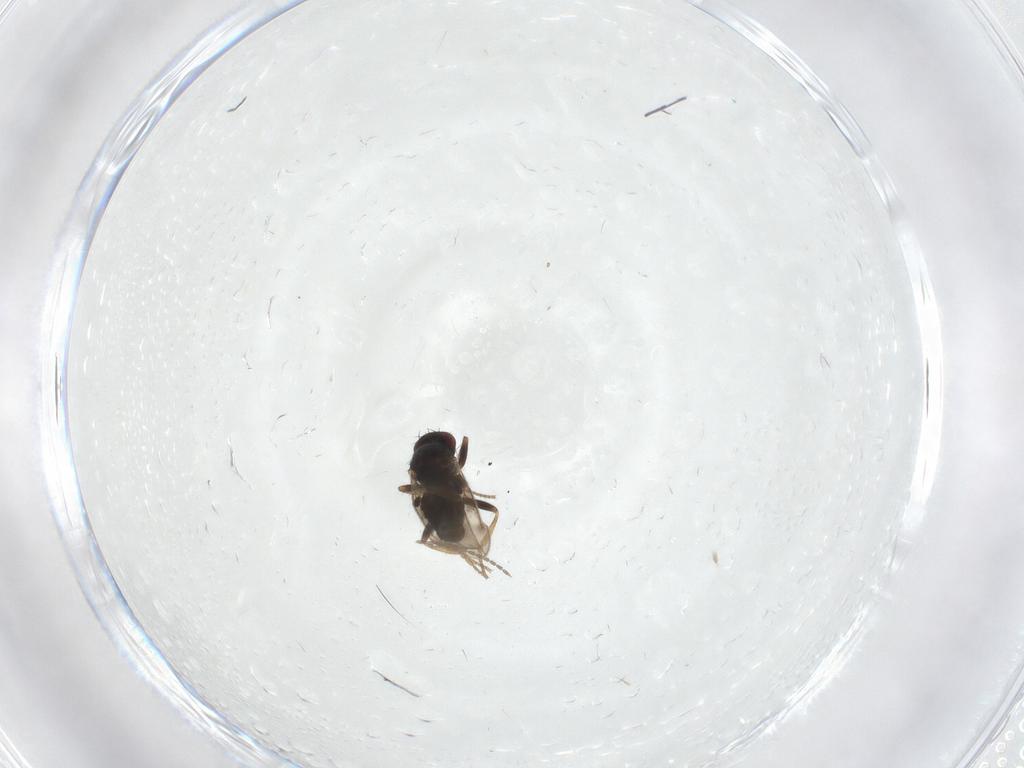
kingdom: Animalia
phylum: Arthropoda
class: Insecta
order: Diptera
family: Sphaeroceridae
